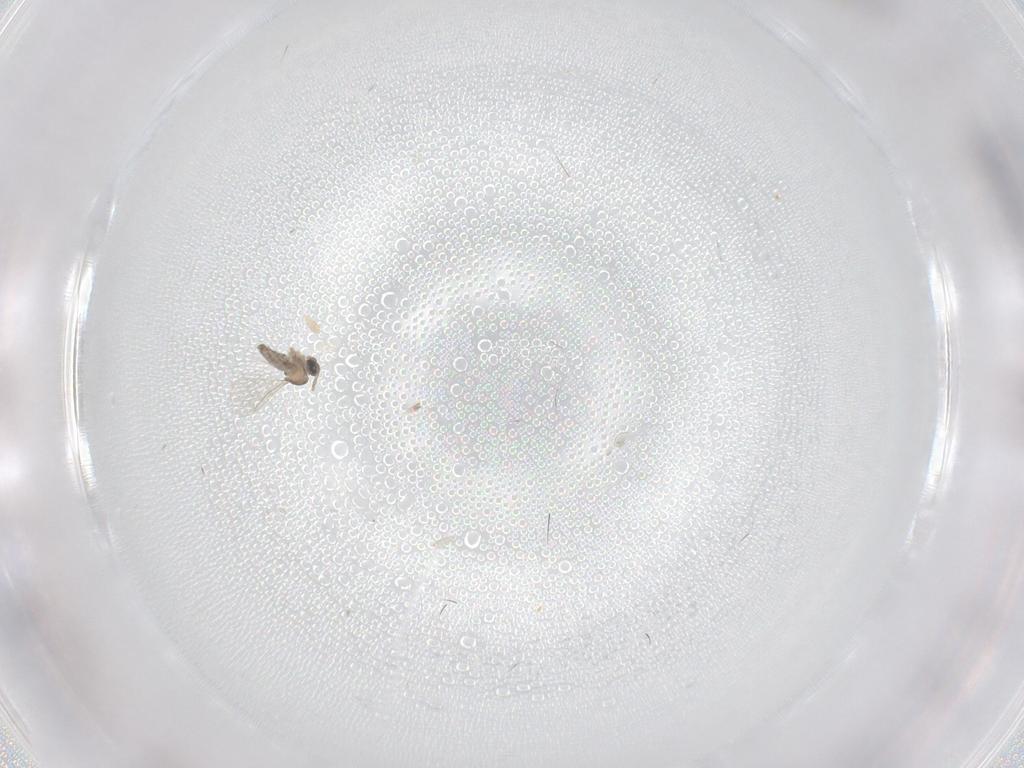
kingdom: Animalia
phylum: Arthropoda
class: Insecta
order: Diptera
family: Cecidomyiidae
